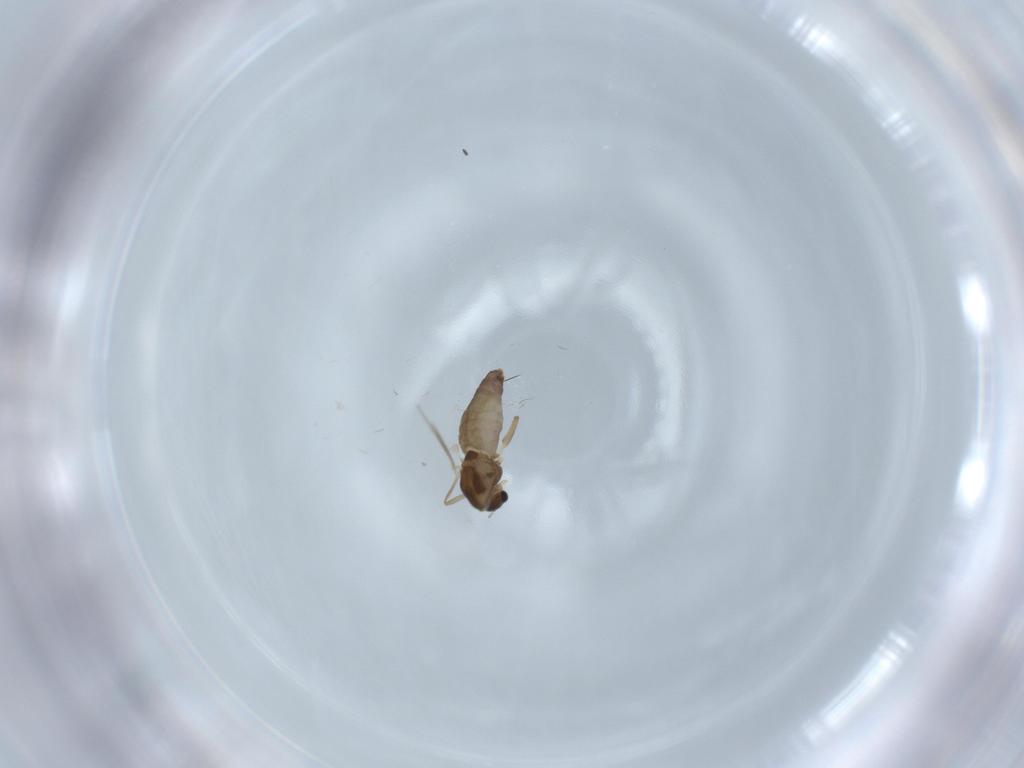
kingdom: Animalia
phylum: Arthropoda
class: Insecta
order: Diptera
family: Chironomidae
